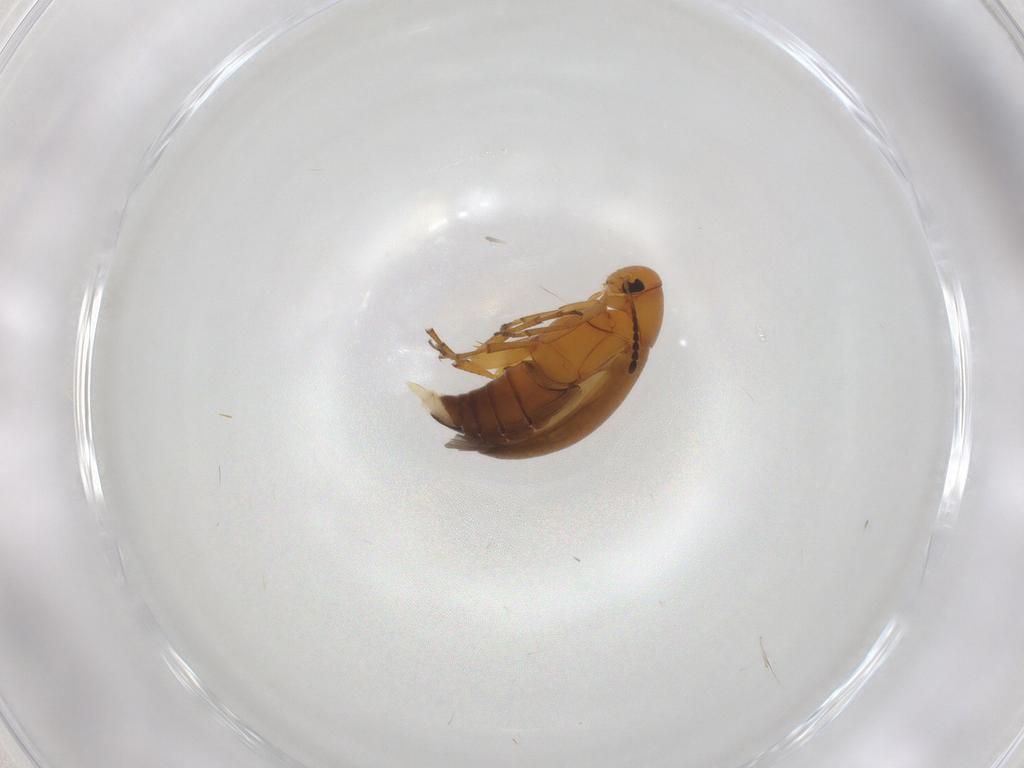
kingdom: Animalia
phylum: Arthropoda
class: Insecta
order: Coleoptera
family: Scraptiidae
